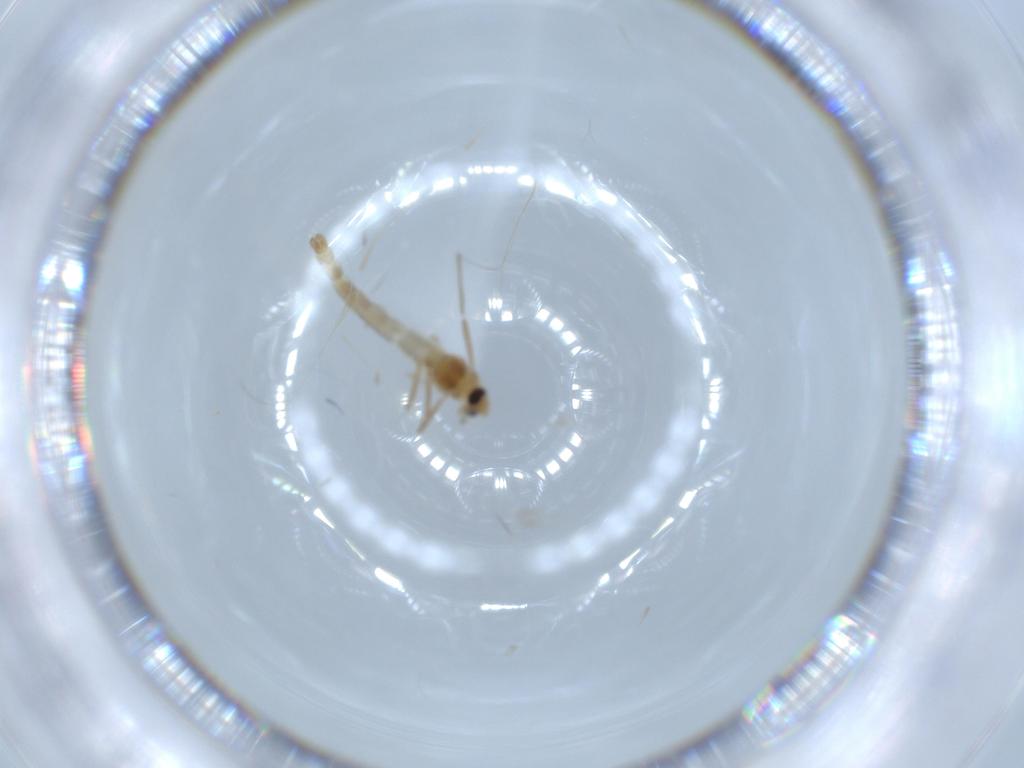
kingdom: Animalia
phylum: Arthropoda
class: Insecta
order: Diptera
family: Chironomidae
